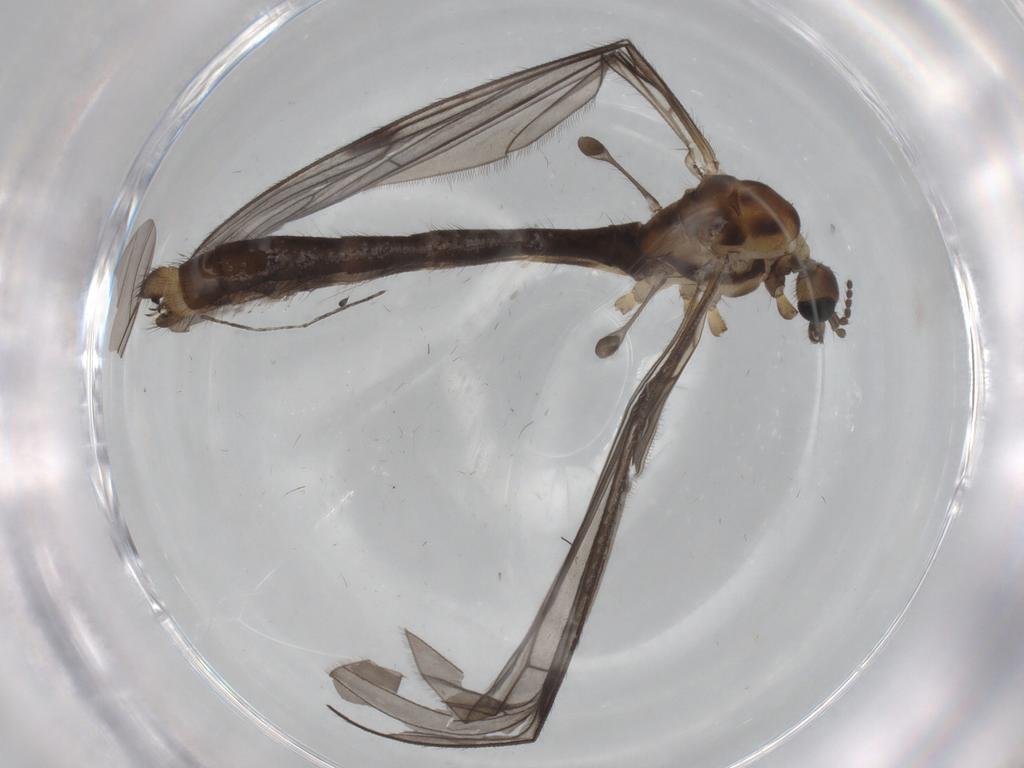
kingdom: Animalia
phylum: Arthropoda
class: Insecta
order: Diptera
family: Limoniidae
